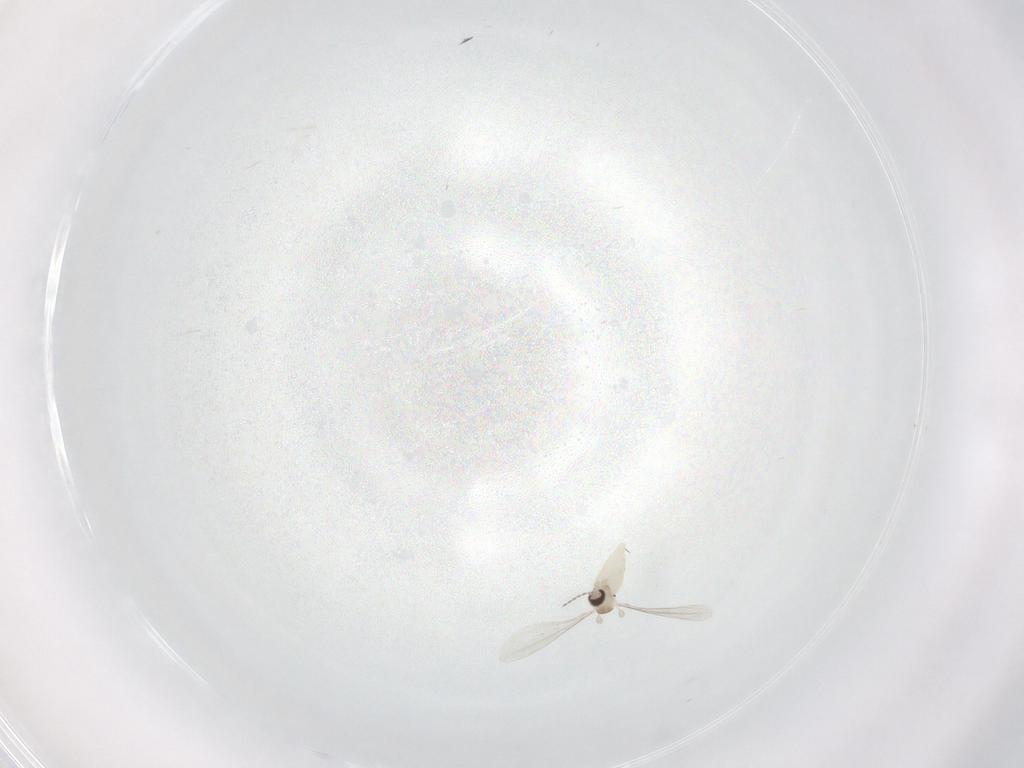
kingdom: Animalia
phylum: Arthropoda
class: Insecta
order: Diptera
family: Cecidomyiidae
